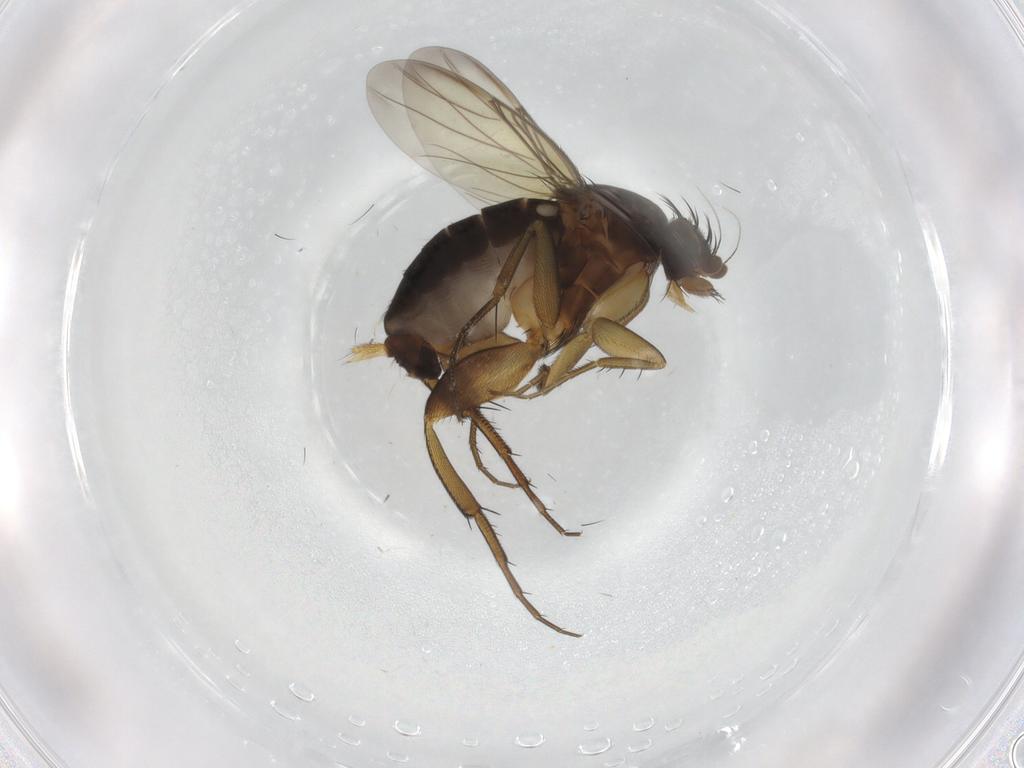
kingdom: Animalia
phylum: Arthropoda
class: Insecta
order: Diptera
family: Phoridae
